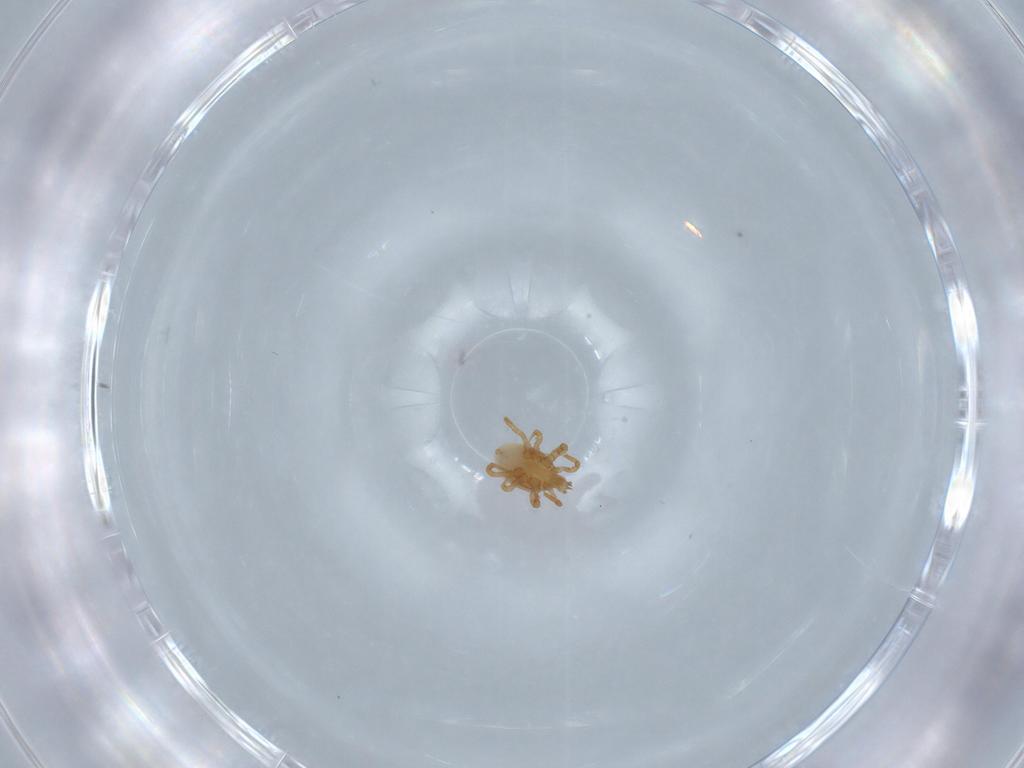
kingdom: Animalia
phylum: Arthropoda
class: Arachnida
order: Mesostigmata
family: Parasitidae
